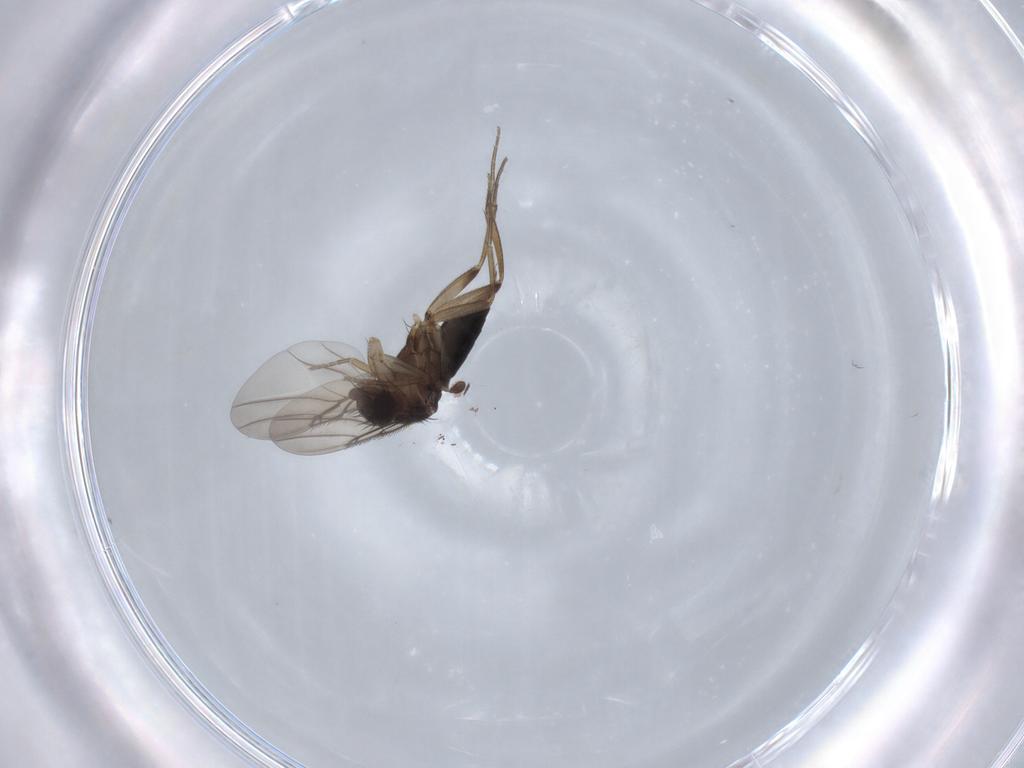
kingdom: Animalia
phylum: Arthropoda
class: Insecta
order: Diptera
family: Phoridae
